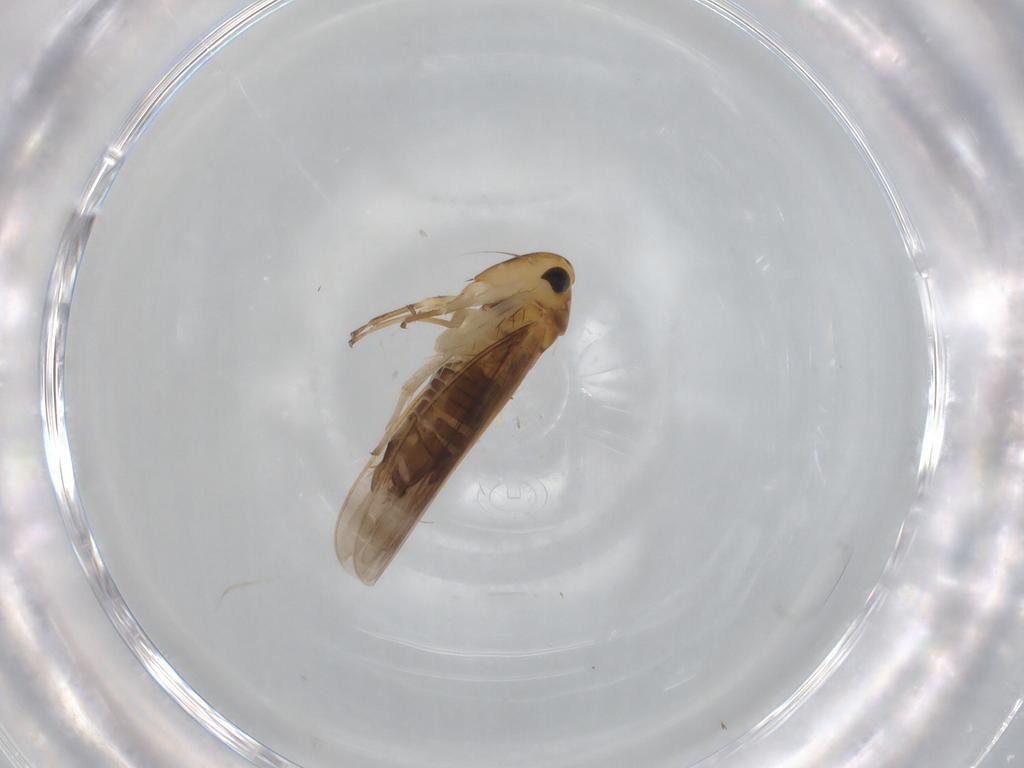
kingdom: Animalia
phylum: Arthropoda
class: Insecta
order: Hemiptera
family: Cicadellidae
